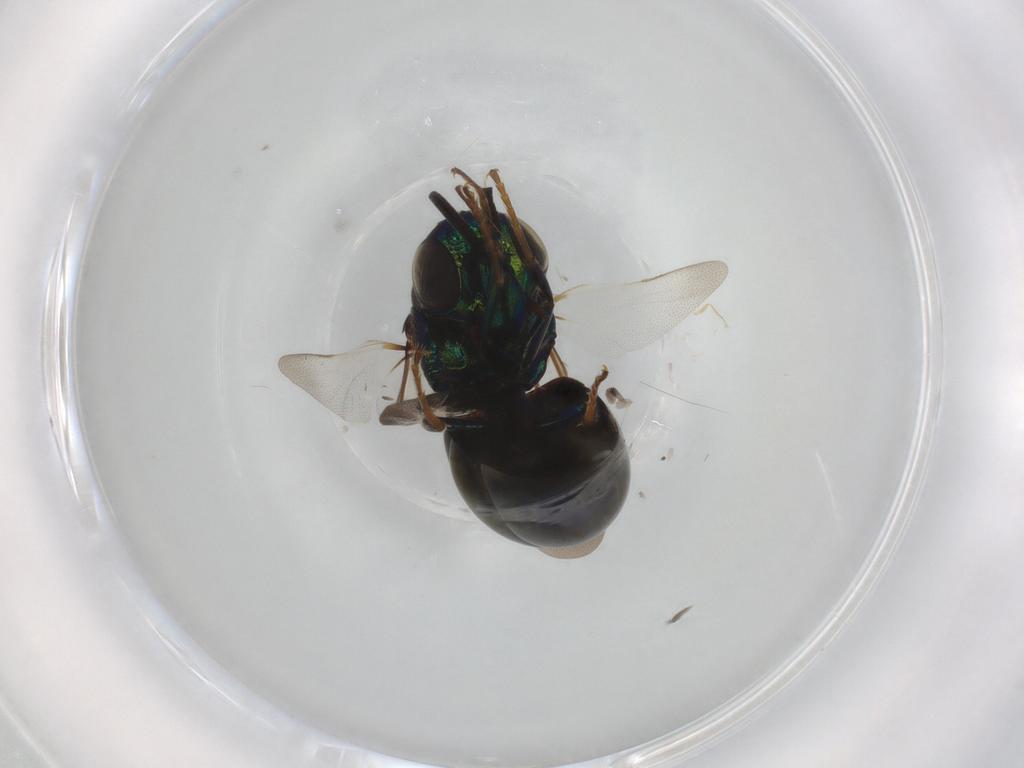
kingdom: Animalia
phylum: Arthropoda
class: Insecta
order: Hymenoptera
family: Chrysididae
